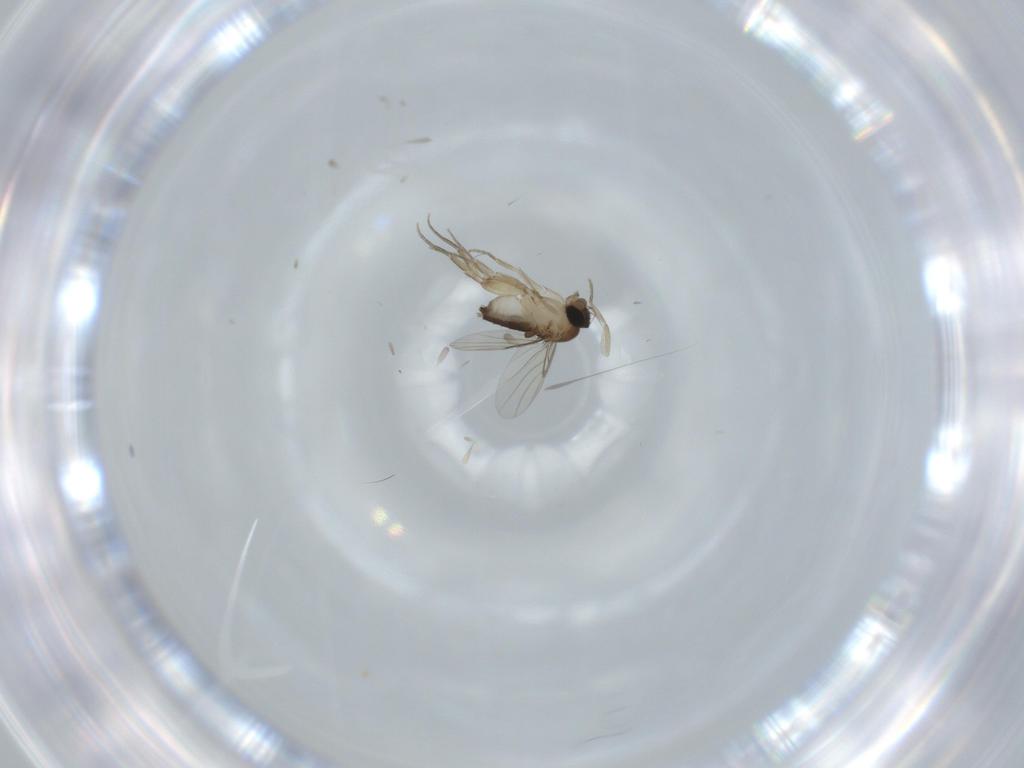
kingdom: Animalia
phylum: Arthropoda
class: Insecta
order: Diptera
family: Phoridae
